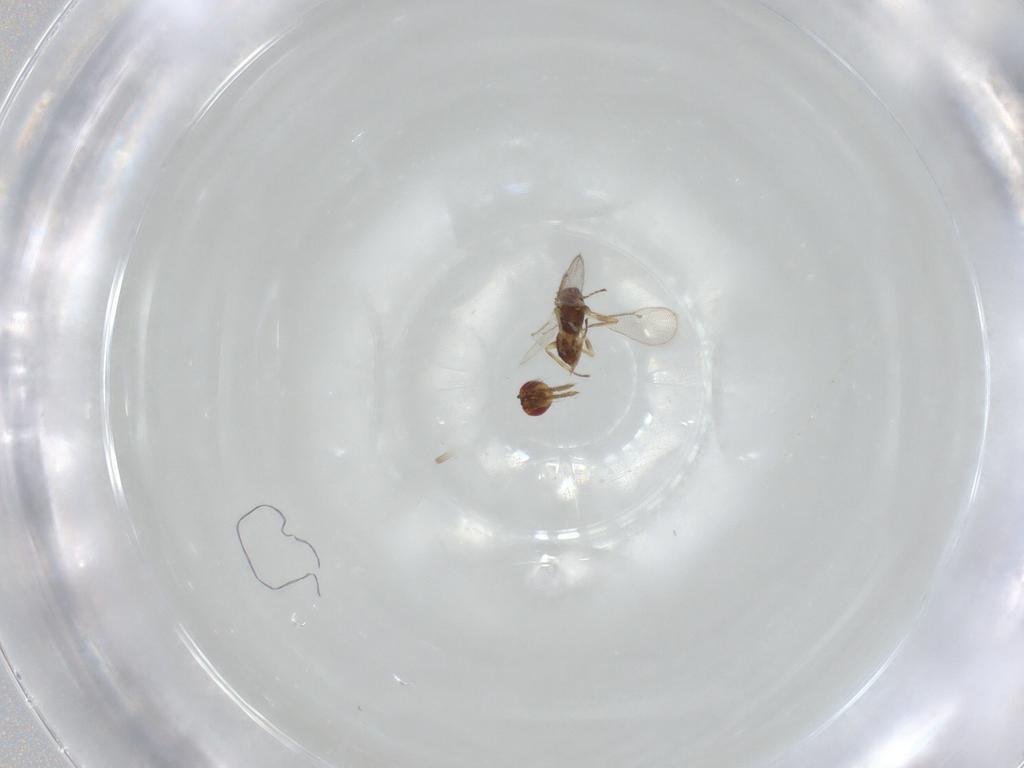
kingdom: Animalia
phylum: Arthropoda
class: Insecta
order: Hymenoptera
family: Eulophidae
